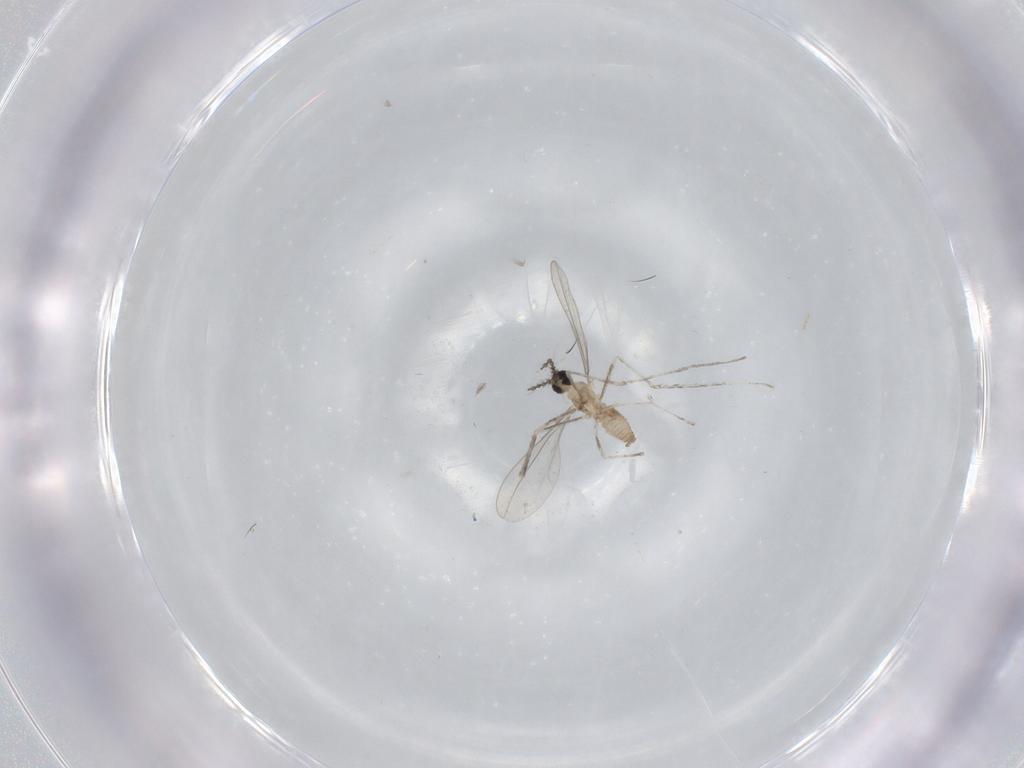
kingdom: Animalia
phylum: Arthropoda
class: Insecta
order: Diptera
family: Cecidomyiidae
